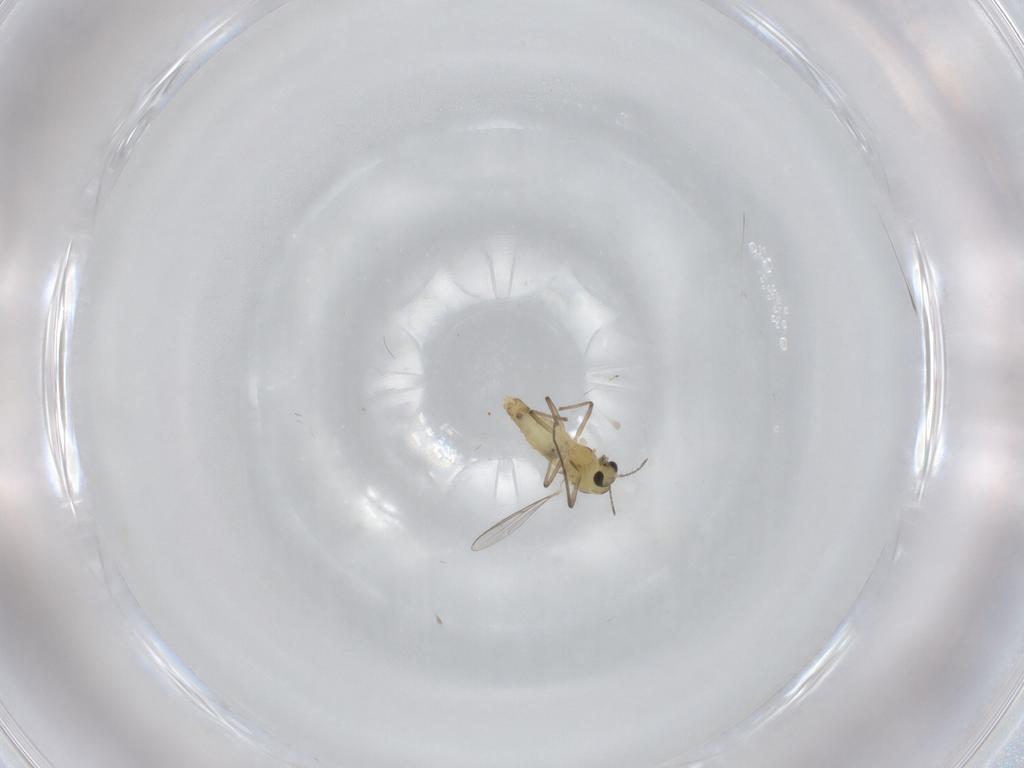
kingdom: Animalia
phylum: Arthropoda
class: Insecta
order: Diptera
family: Chironomidae
